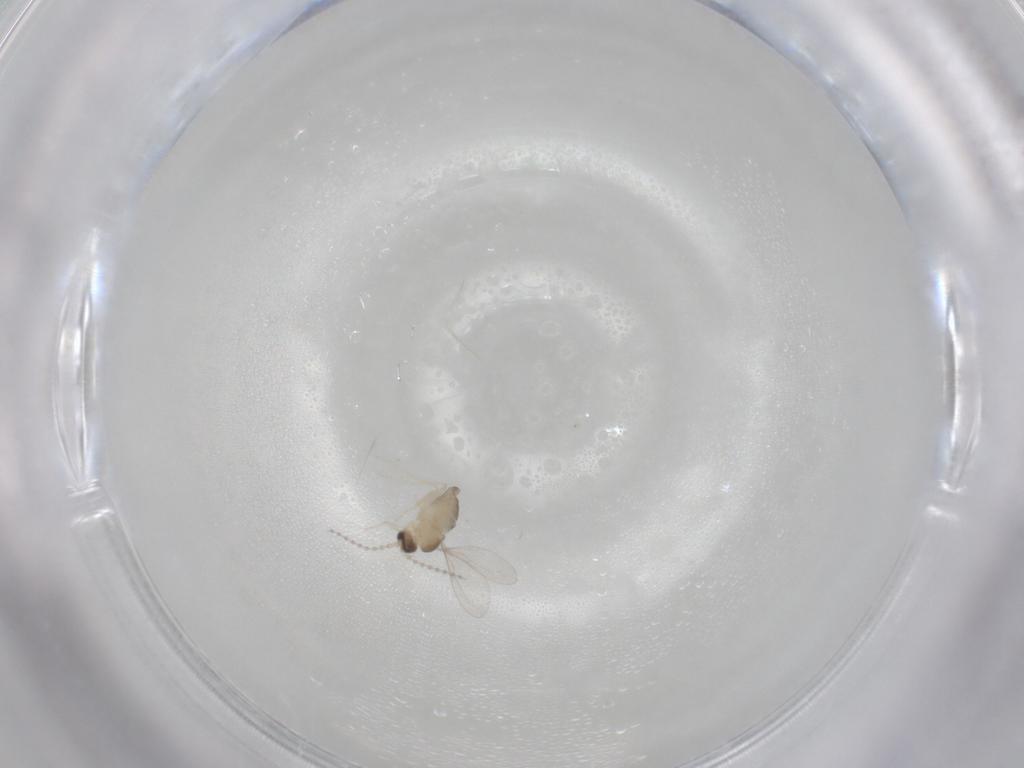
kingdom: Animalia
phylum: Arthropoda
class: Insecta
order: Diptera
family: Cecidomyiidae
